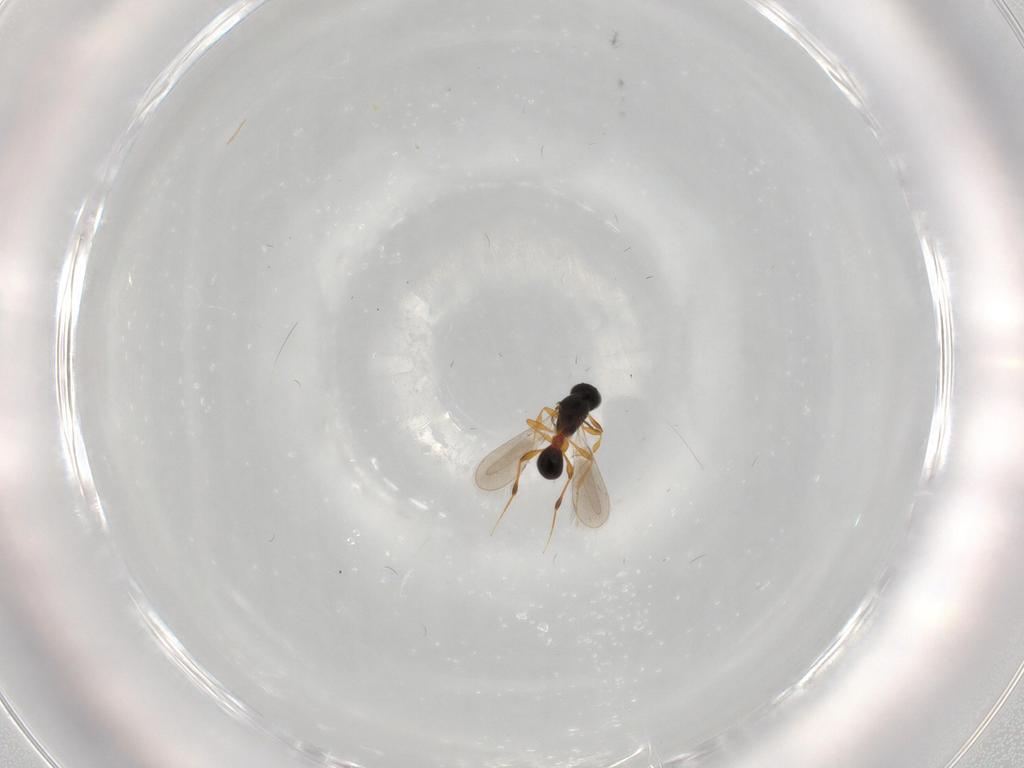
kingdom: Animalia
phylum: Arthropoda
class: Insecta
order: Hymenoptera
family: Platygastridae
